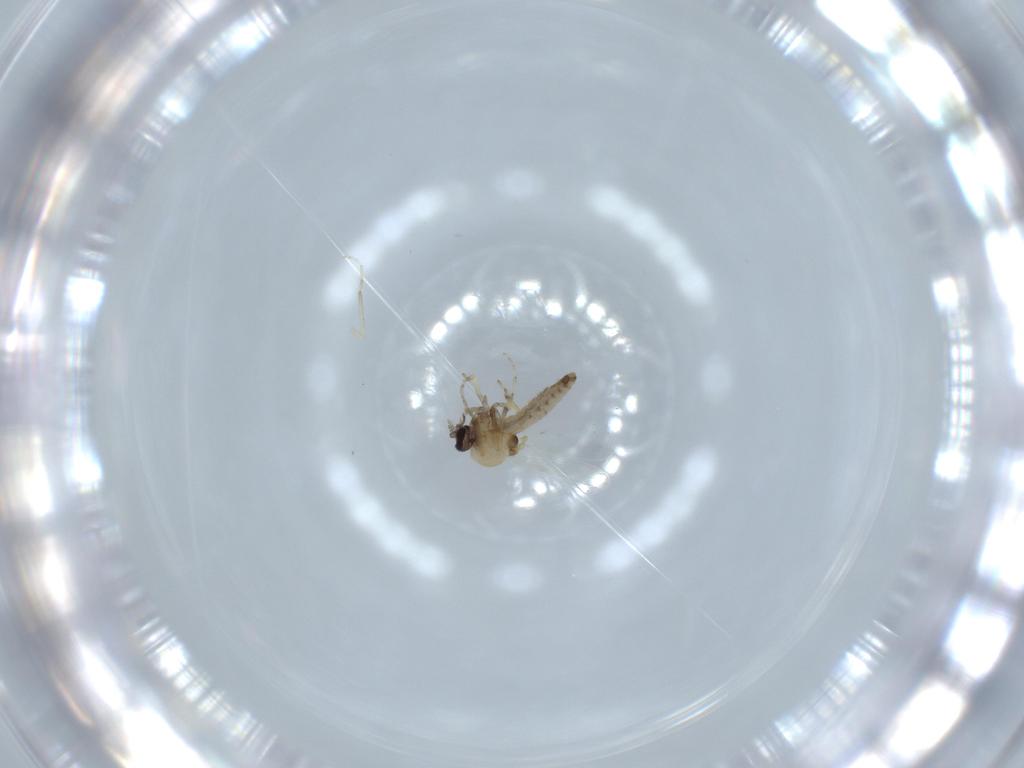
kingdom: Animalia
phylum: Arthropoda
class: Insecta
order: Diptera
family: Ceratopogonidae
